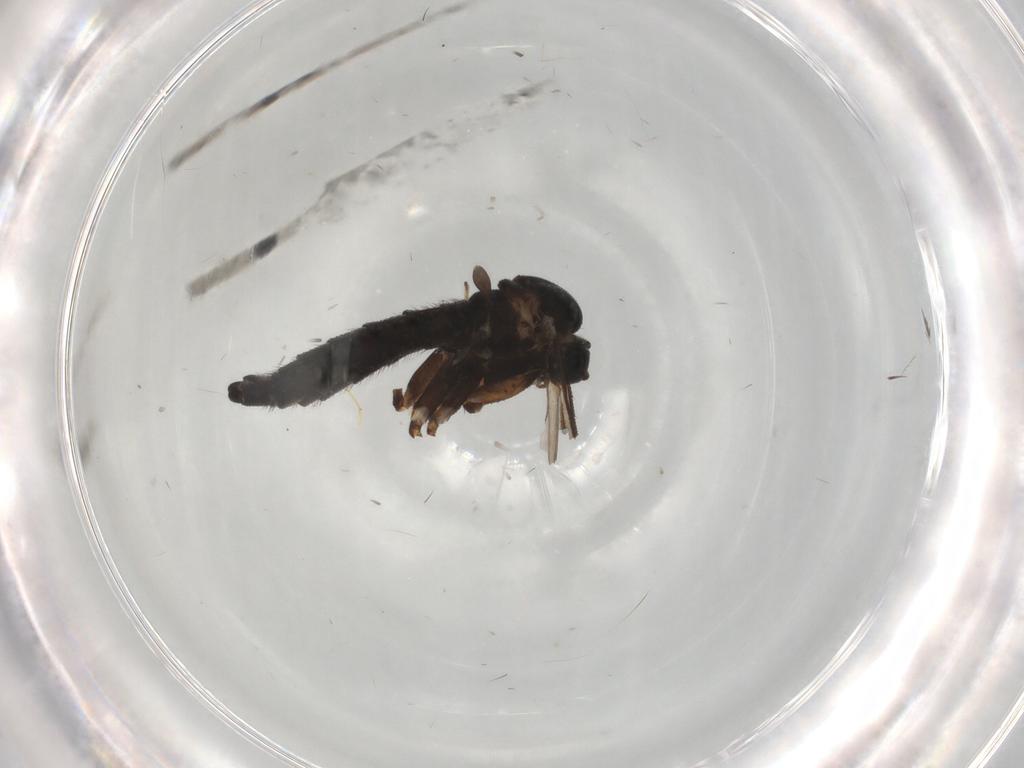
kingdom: Animalia
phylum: Arthropoda
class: Insecta
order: Diptera
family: Sciaridae
